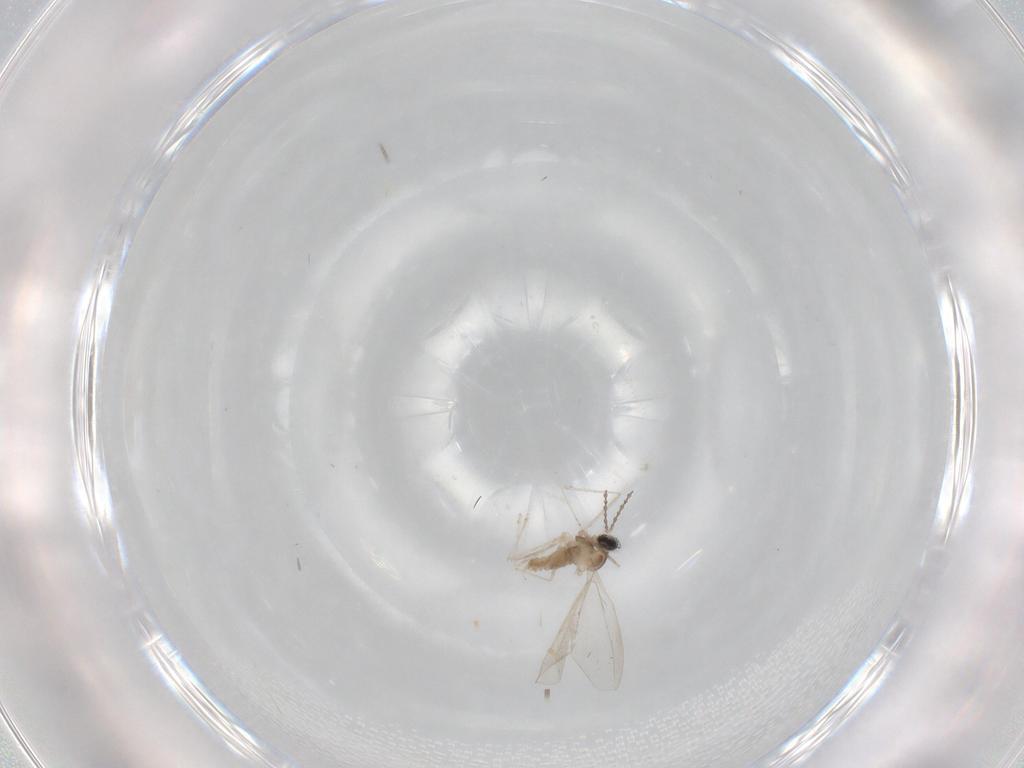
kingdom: Animalia
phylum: Arthropoda
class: Insecta
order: Diptera
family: Cecidomyiidae
